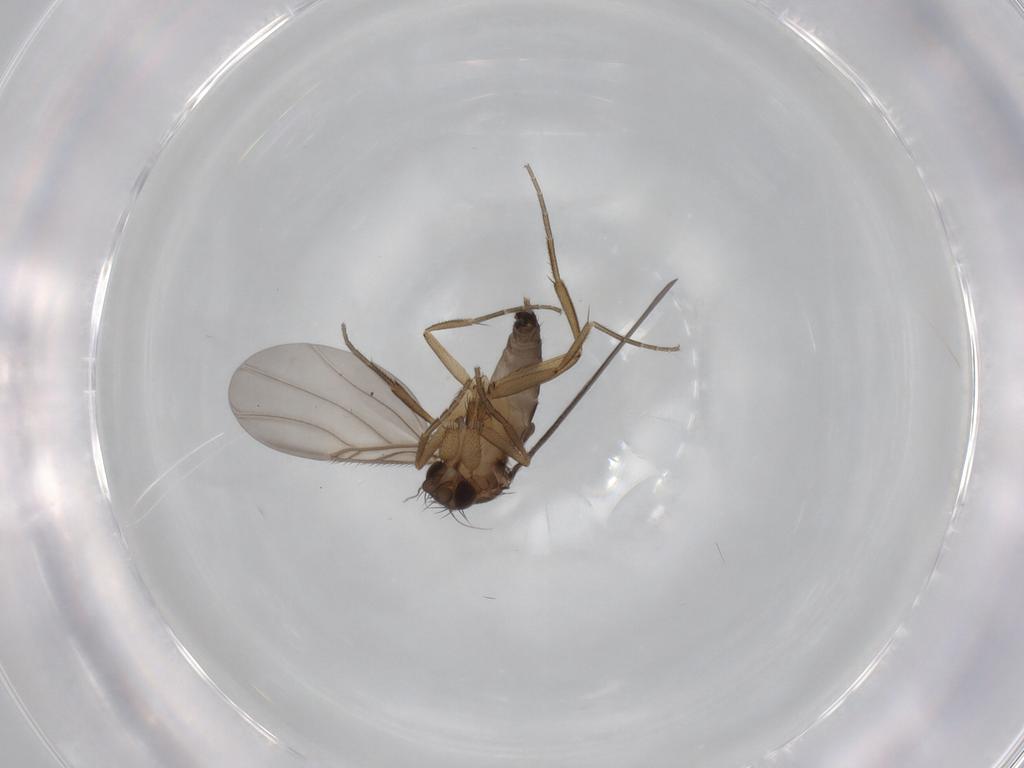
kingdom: Animalia
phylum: Arthropoda
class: Insecta
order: Diptera
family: Phoridae
